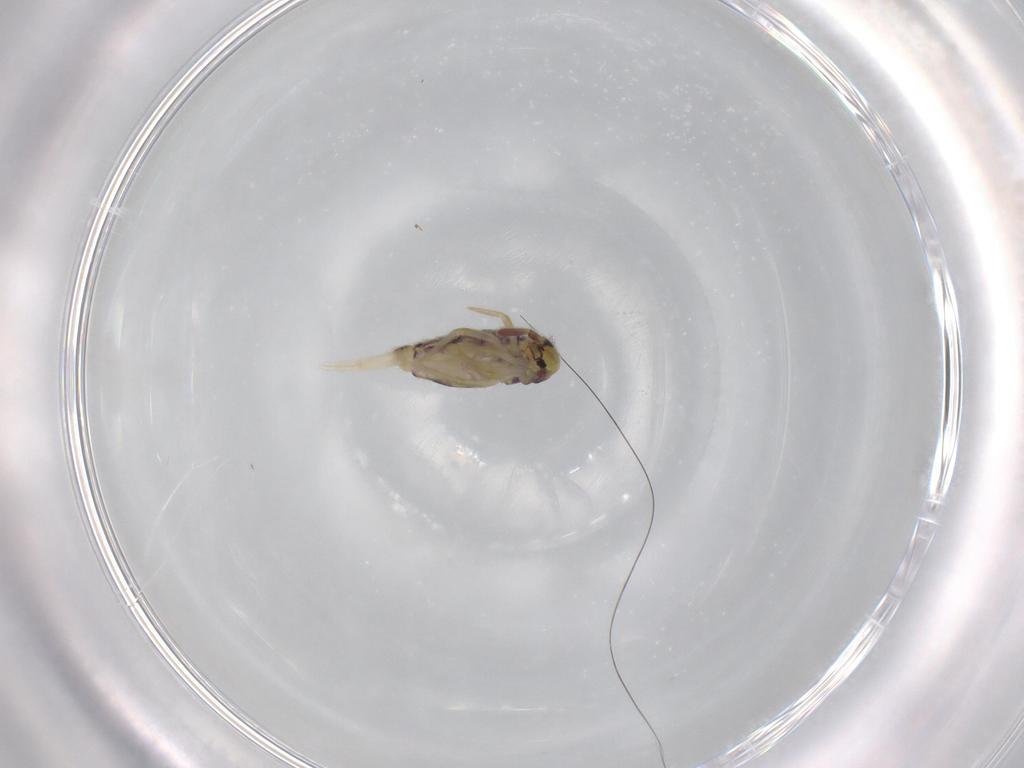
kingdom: Animalia
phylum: Arthropoda
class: Collembola
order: Entomobryomorpha
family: Entomobryidae
